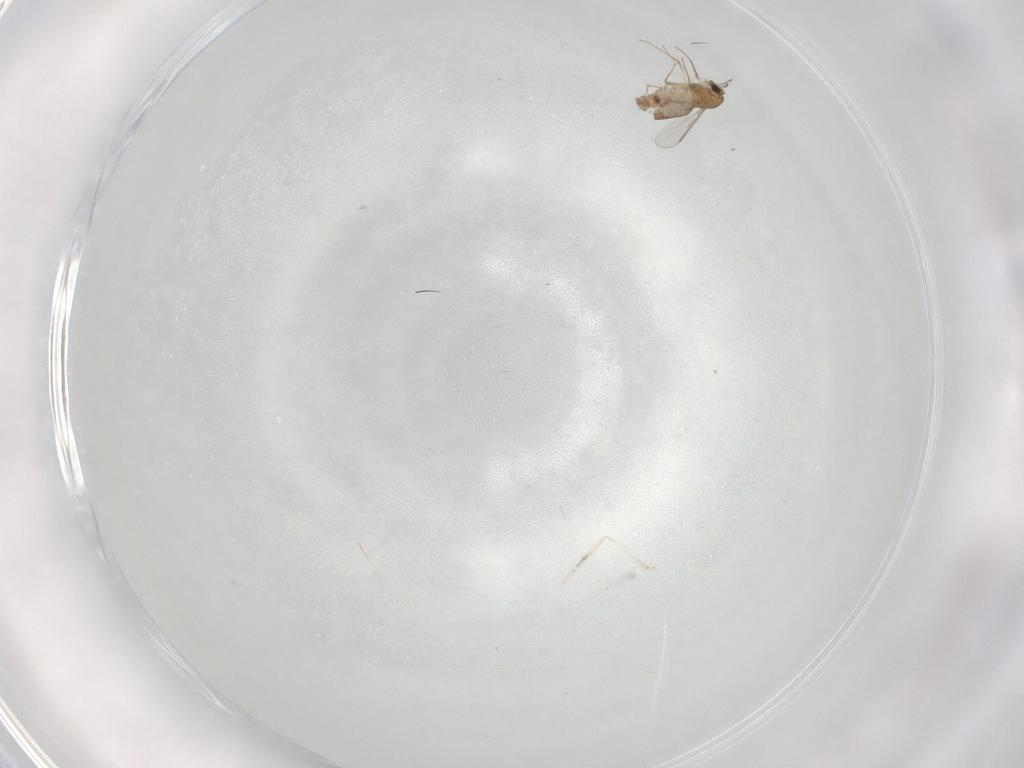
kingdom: Animalia
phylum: Arthropoda
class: Insecta
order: Diptera
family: Chironomidae
